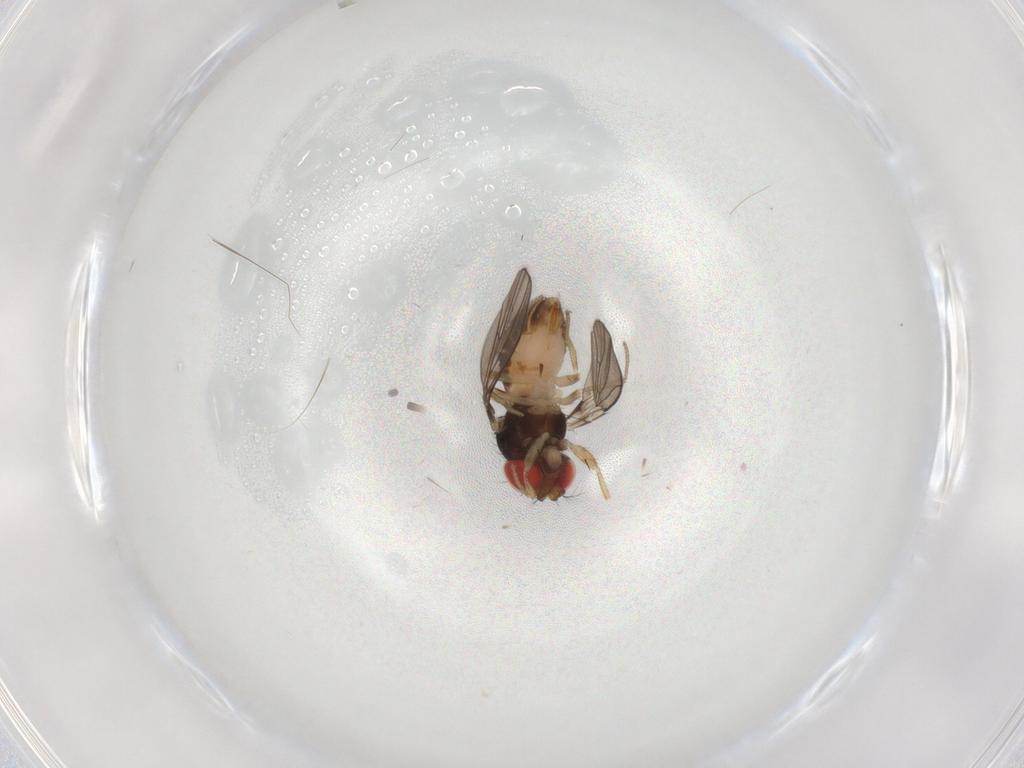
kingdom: Animalia
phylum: Arthropoda
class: Insecta
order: Diptera
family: Drosophilidae
